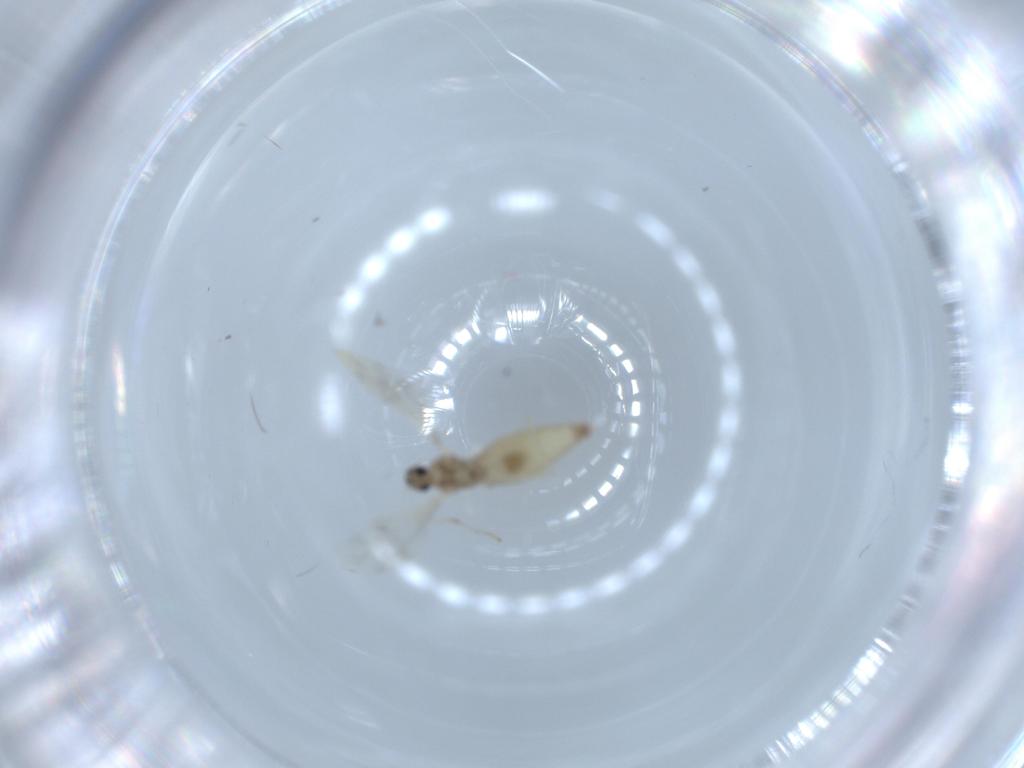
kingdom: Animalia
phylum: Arthropoda
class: Insecta
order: Diptera
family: Cecidomyiidae
